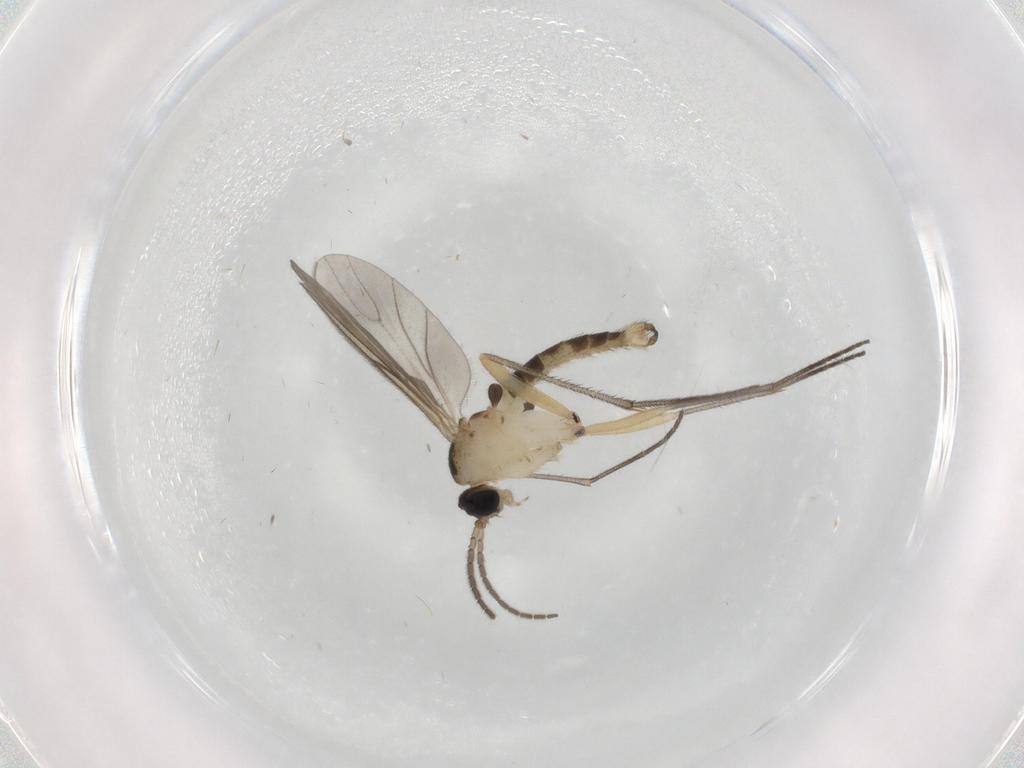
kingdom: Animalia
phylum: Arthropoda
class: Insecta
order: Diptera
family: Sciaridae
